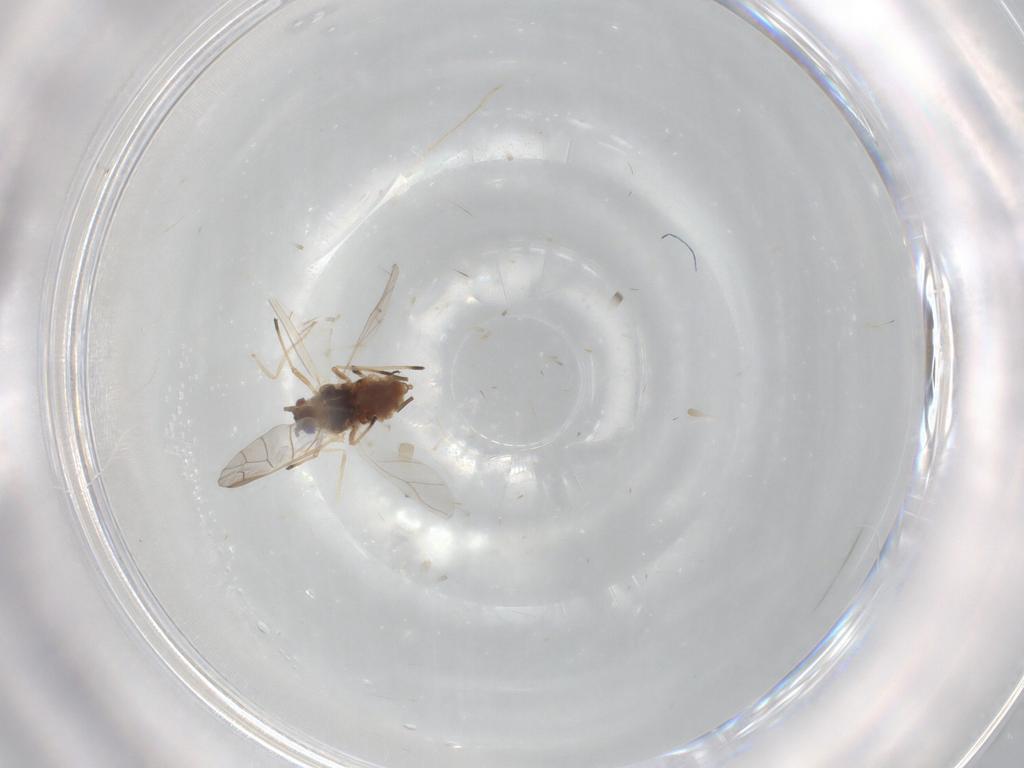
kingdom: Animalia
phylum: Arthropoda
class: Insecta
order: Hemiptera
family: Aphididae
